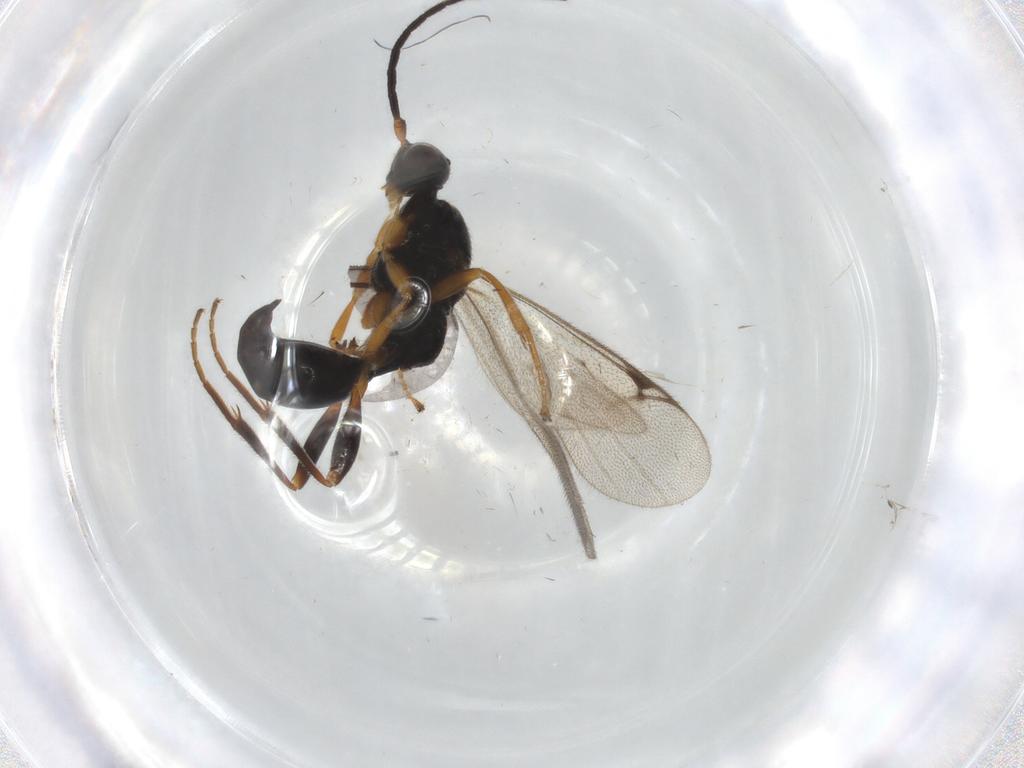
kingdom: Animalia
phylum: Arthropoda
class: Insecta
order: Hymenoptera
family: Proctotrupidae
